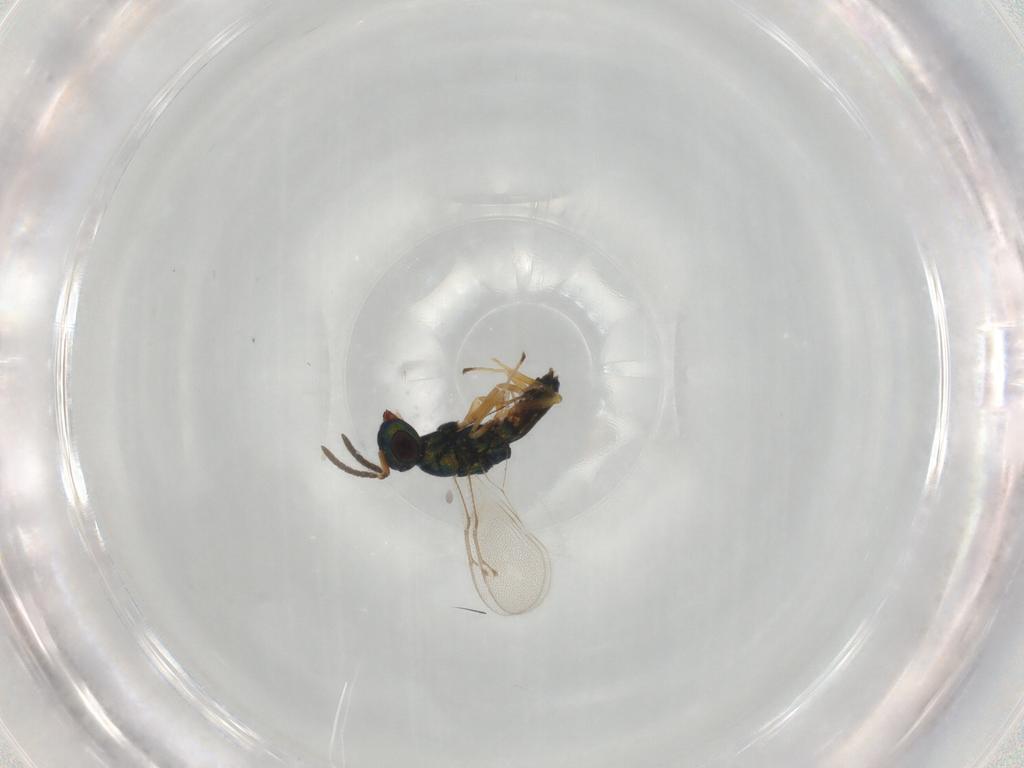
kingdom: Animalia
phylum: Arthropoda
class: Insecta
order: Hymenoptera
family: Pteromalidae
